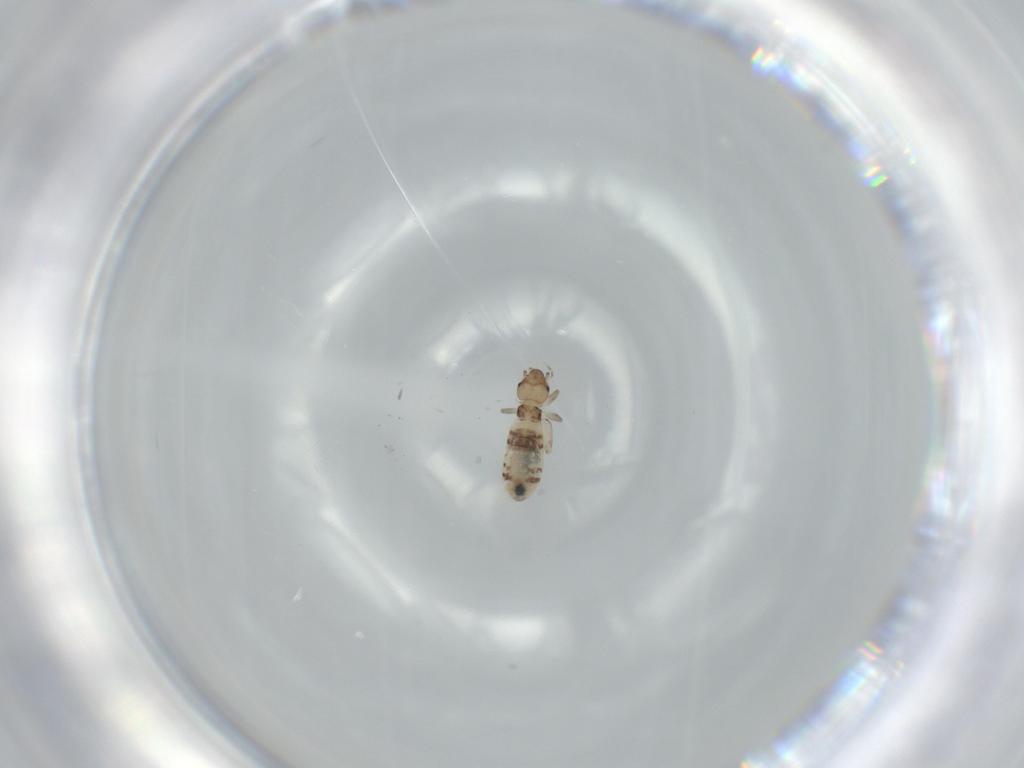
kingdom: Animalia
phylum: Arthropoda
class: Insecta
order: Psocodea
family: Liposcelididae
